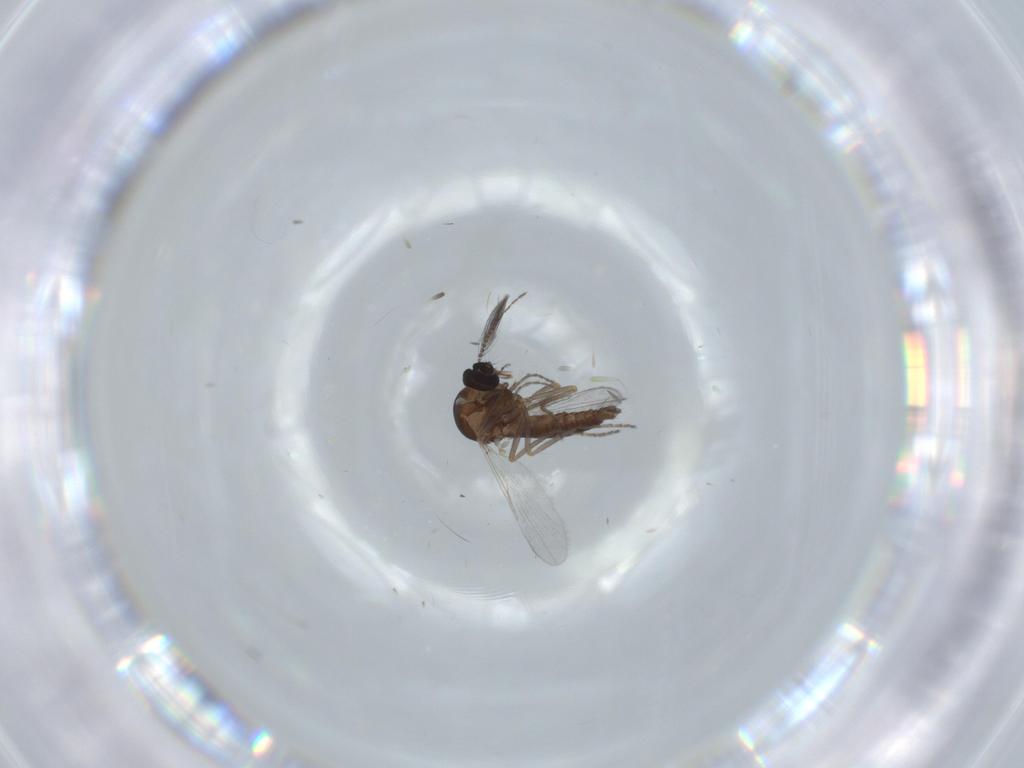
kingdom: Animalia
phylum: Arthropoda
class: Insecta
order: Diptera
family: Ceratopogonidae
